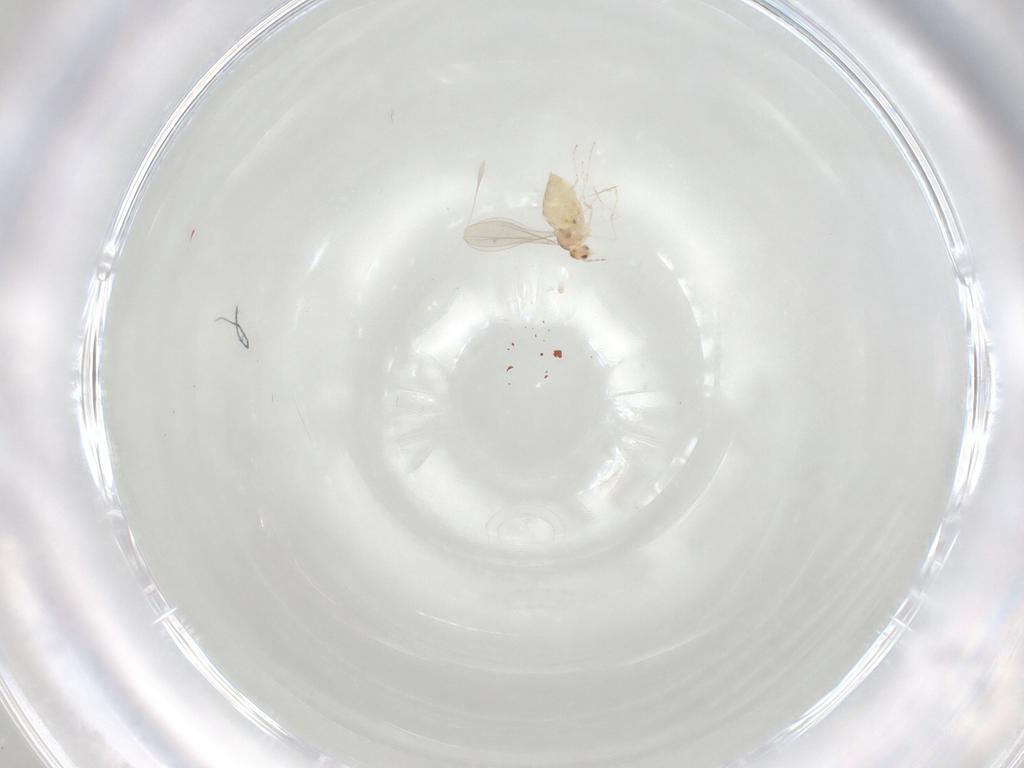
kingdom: Animalia
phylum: Arthropoda
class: Insecta
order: Diptera
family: Cecidomyiidae
